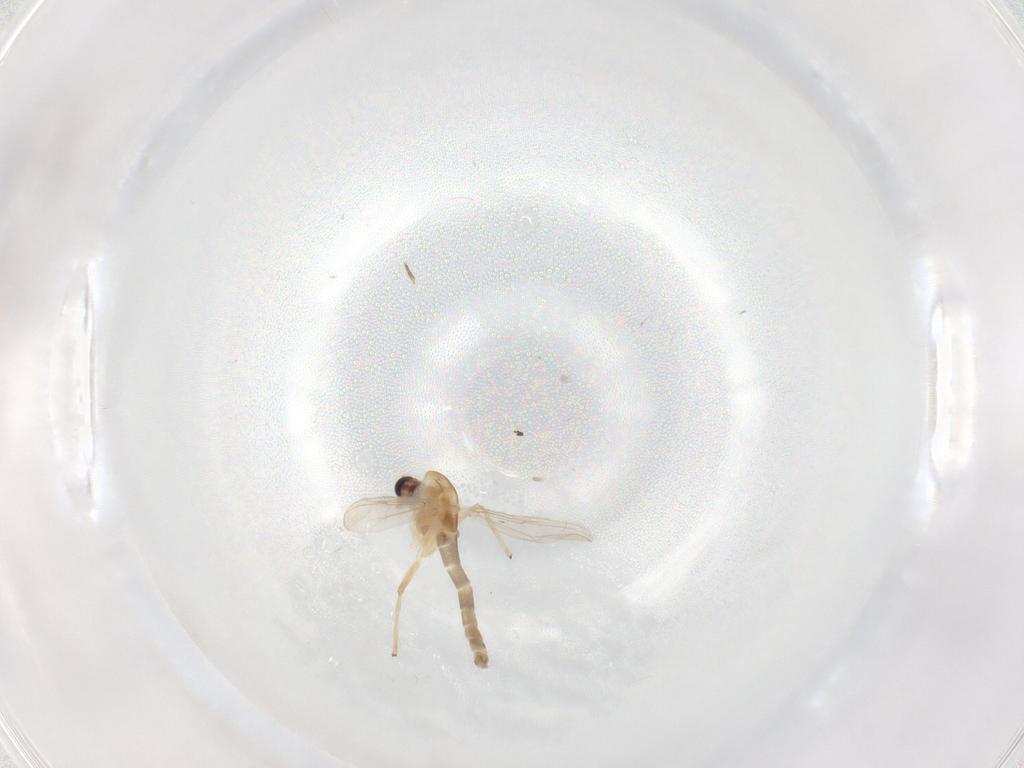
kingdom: Animalia
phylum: Arthropoda
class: Insecta
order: Diptera
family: Chironomidae
